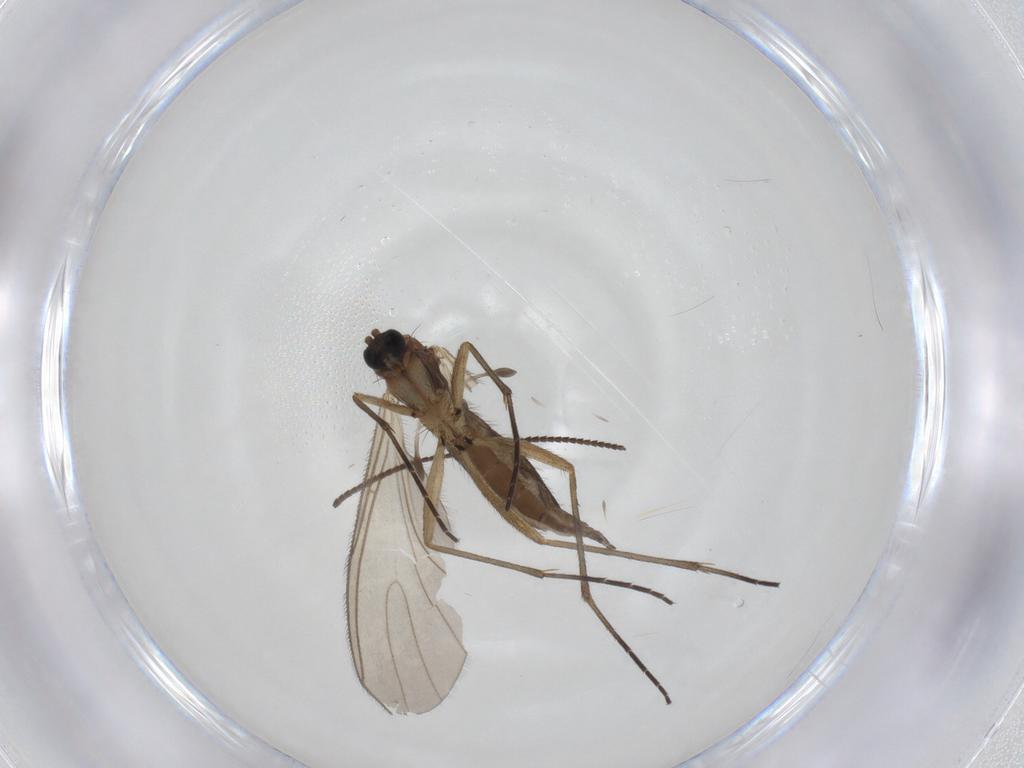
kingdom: Animalia
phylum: Arthropoda
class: Insecta
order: Diptera
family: Sciaridae
